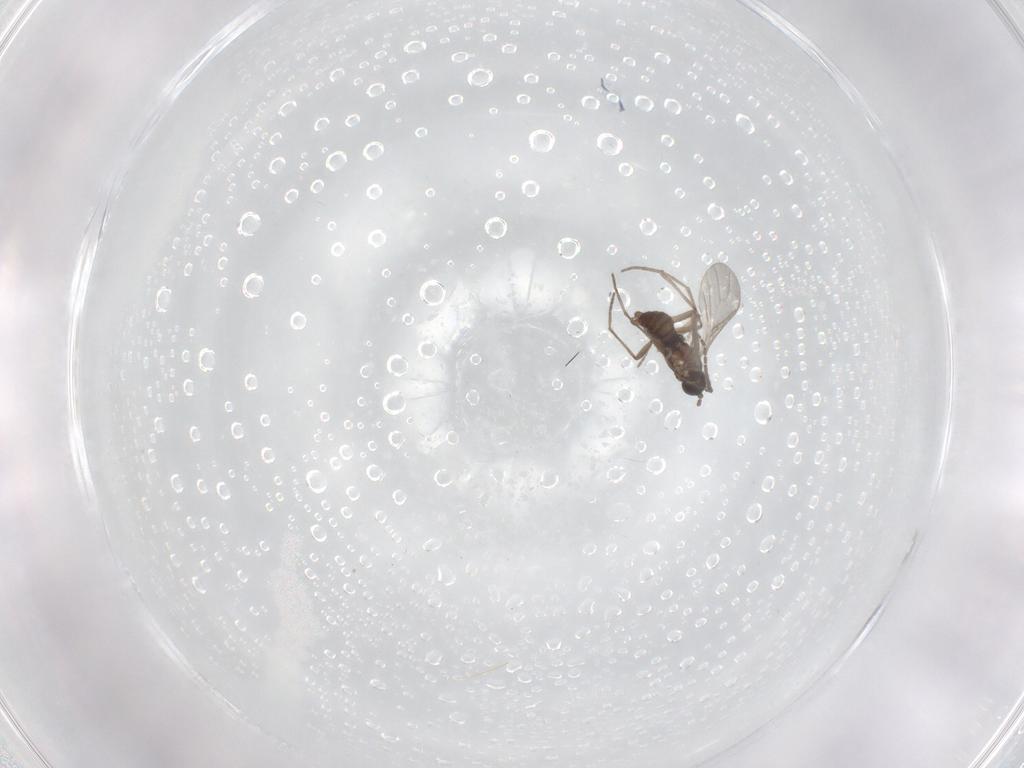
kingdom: Animalia
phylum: Arthropoda
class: Insecta
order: Diptera
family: Sciaridae
